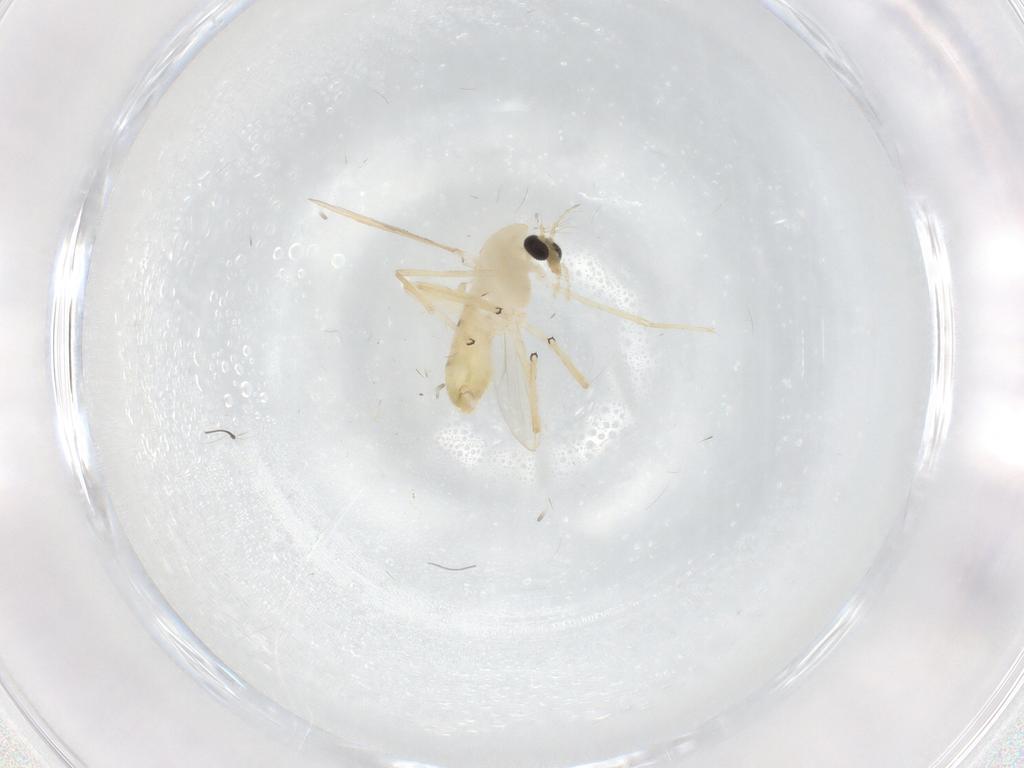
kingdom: Animalia
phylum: Arthropoda
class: Insecta
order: Diptera
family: Chironomidae
